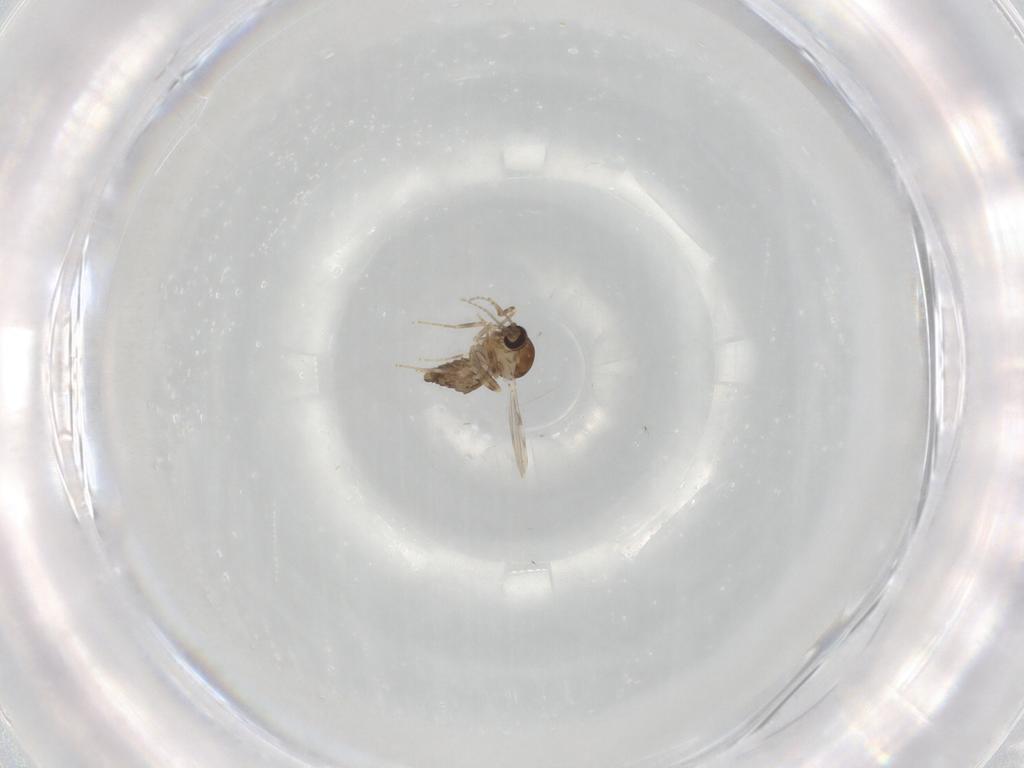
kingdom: Animalia
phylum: Arthropoda
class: Insecta
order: Diptera
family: Ceratopogonidae
